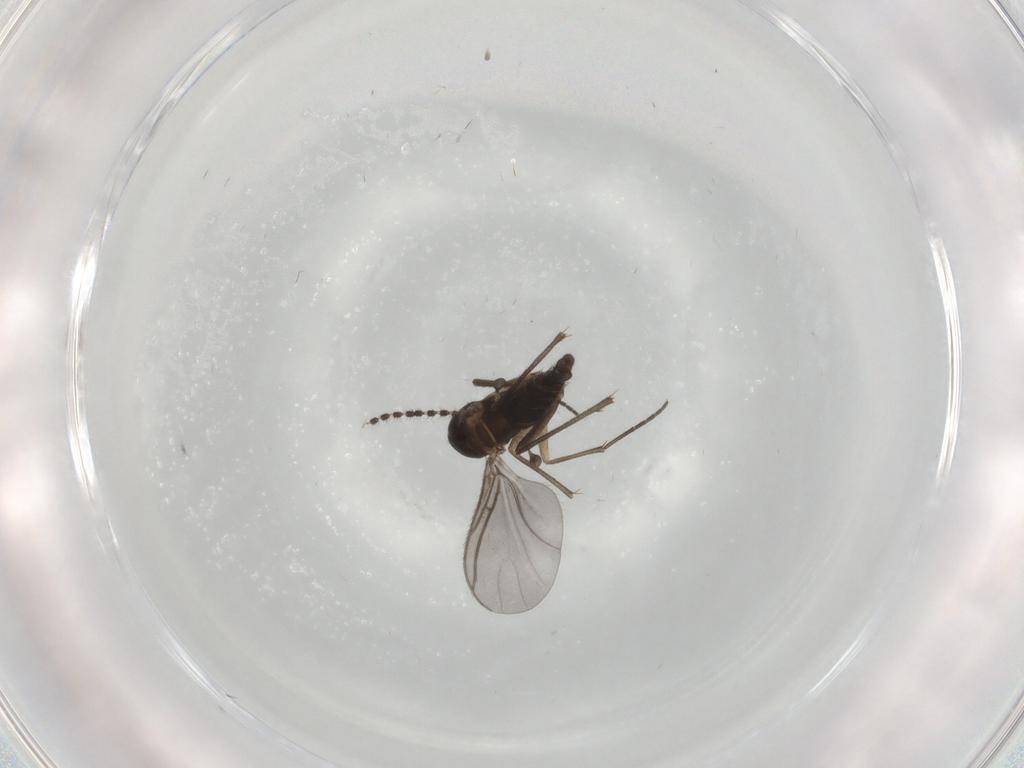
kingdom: Animalia
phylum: Arthropoda
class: Insecta
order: Diptera
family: Sciaridae
